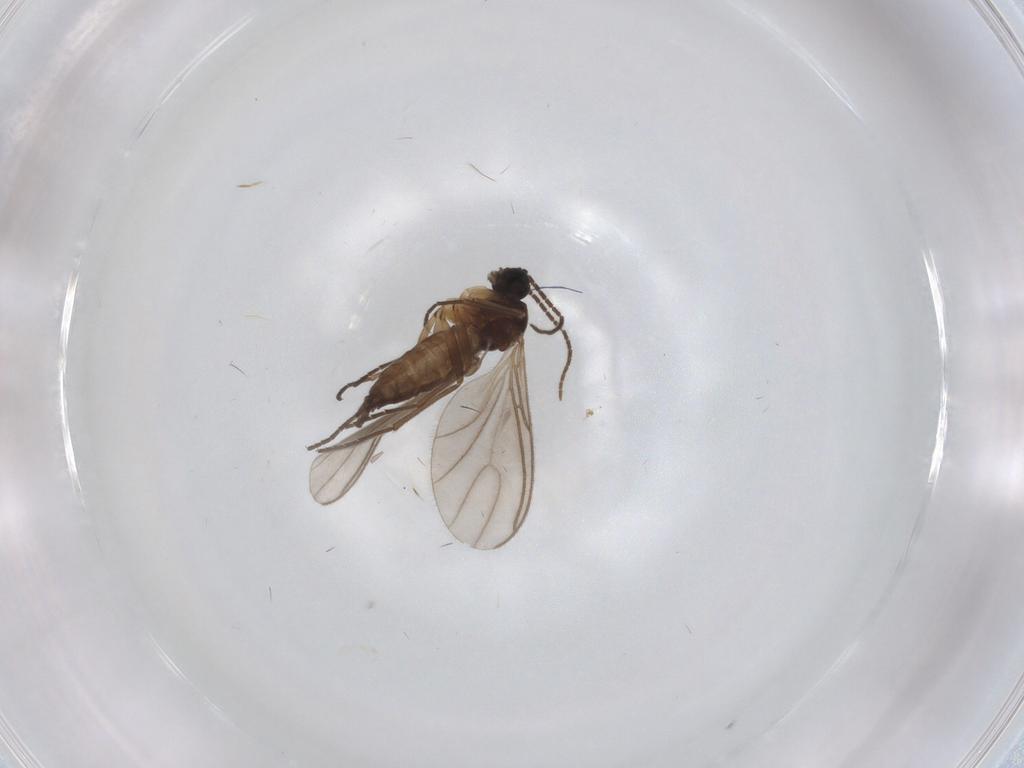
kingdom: Animalia
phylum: Arthropoda
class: Insecta
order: Diptera
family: Sciaridae
